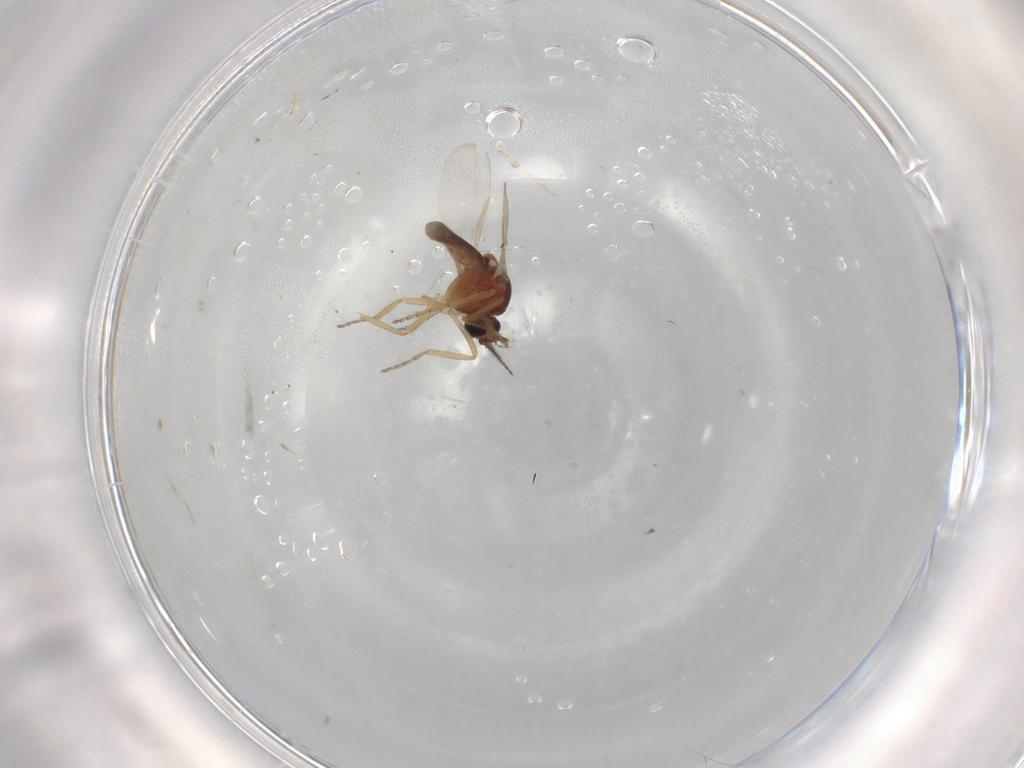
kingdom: Animalia
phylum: Arthropoda
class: Insecta
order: Diptera
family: Ceratopogonidae
